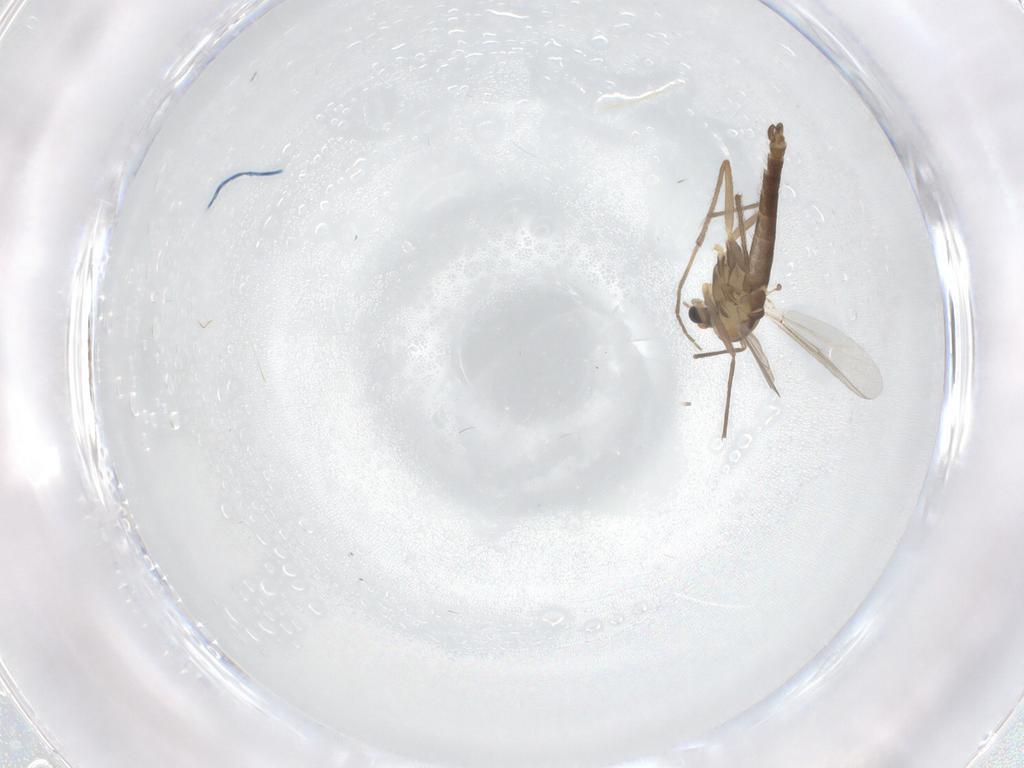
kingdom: Animalia
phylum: Arthropoda
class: Insecta
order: Diptera
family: Chironomidae
